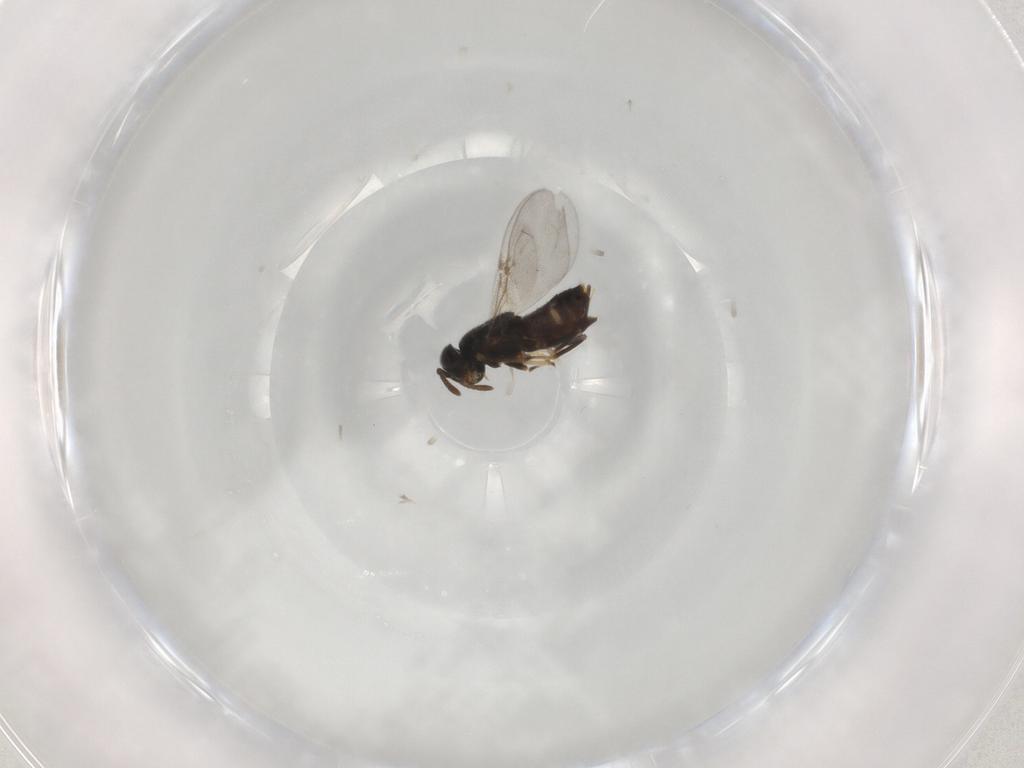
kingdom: Animalia
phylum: Arthropoda
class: Insecta
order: Hymenoptera
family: Encyrtidae
